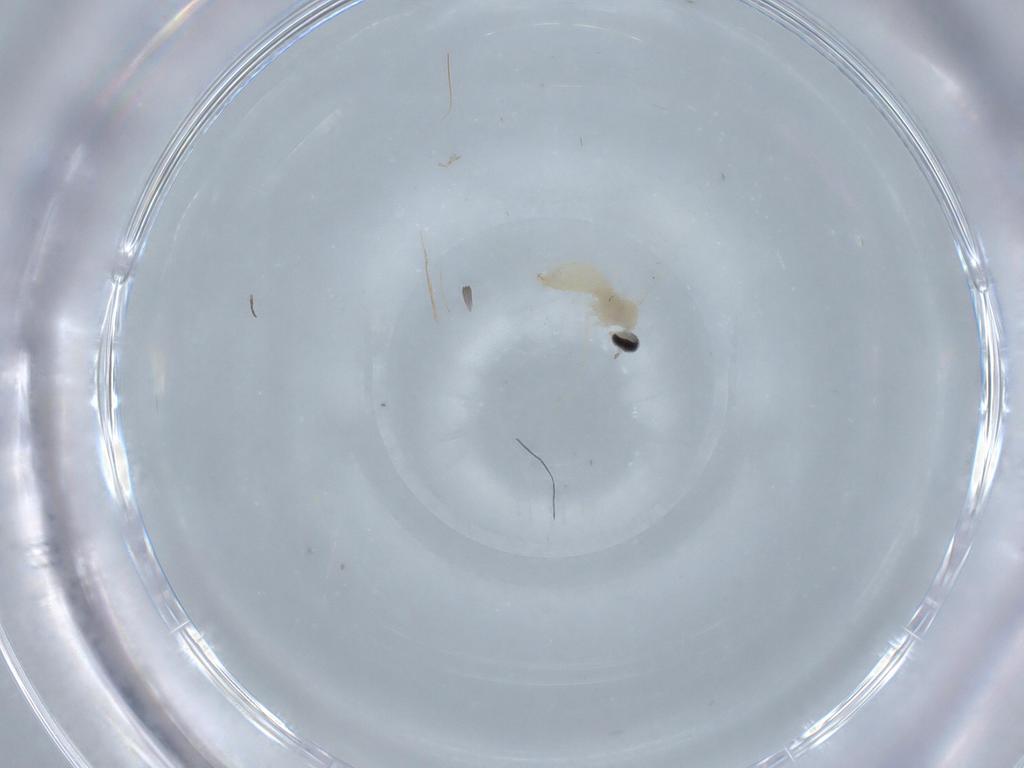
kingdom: Animalia
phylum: Arthropoda
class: Insecta
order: Diptera
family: Cecidomyiidae
